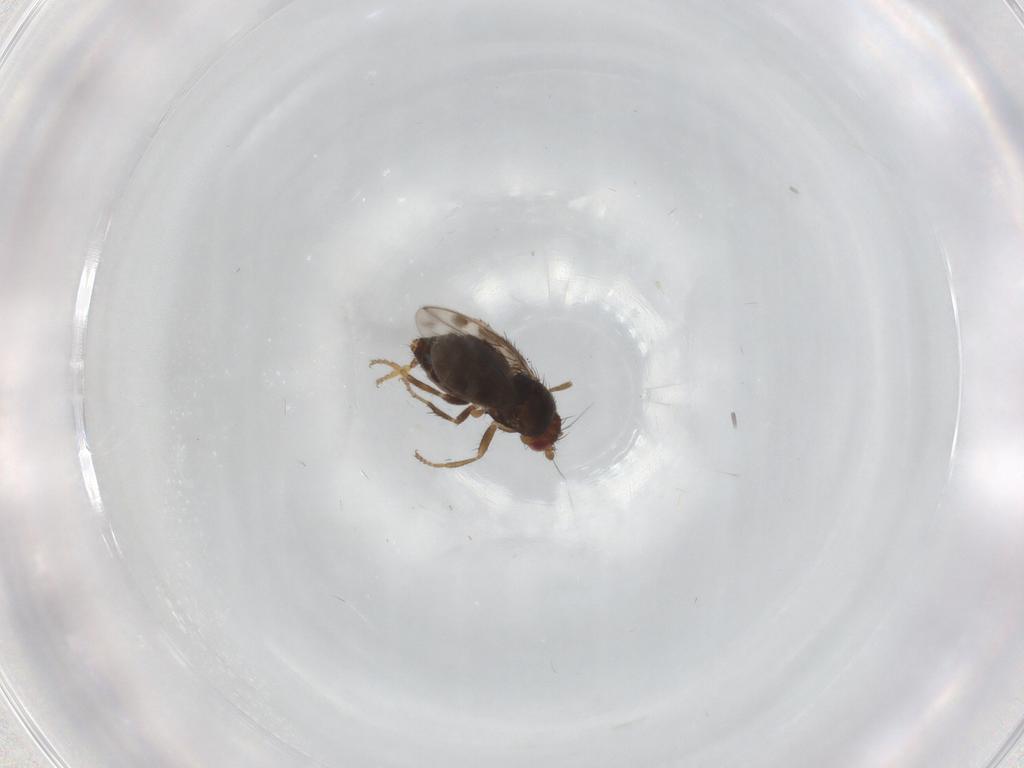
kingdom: Animalia
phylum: Arthropoda
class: Insecta
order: Diptera
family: Sphaeroceridae
